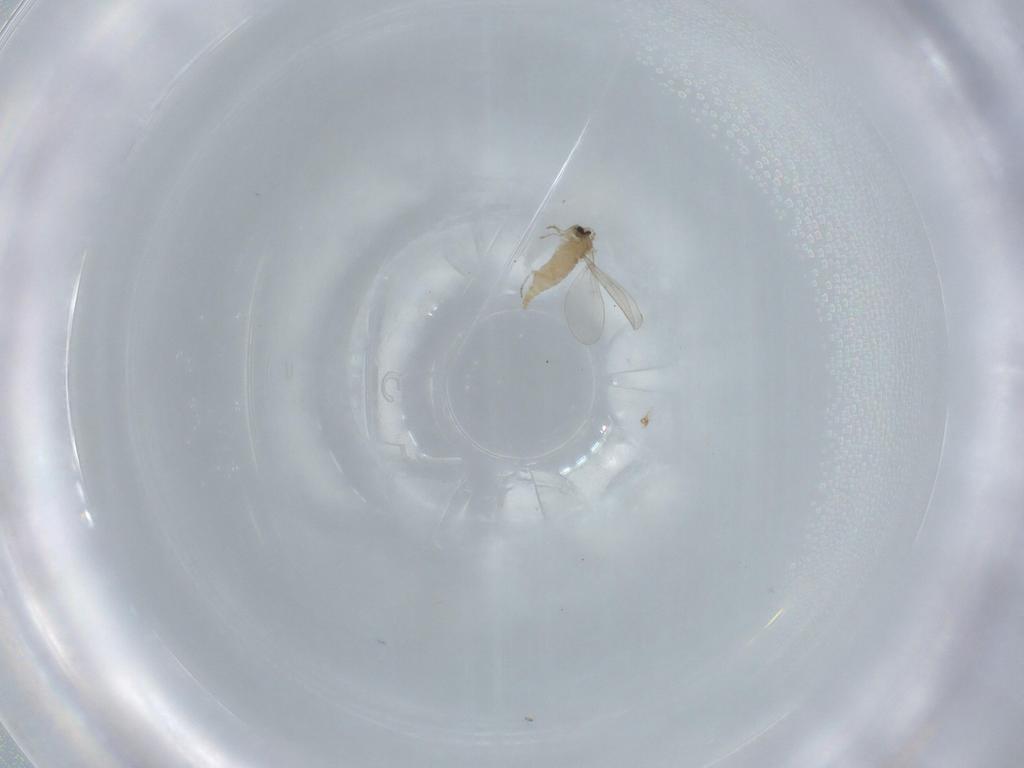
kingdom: Animalia
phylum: Arthropoda
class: Insecta
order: Diptera
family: Cecidomyiidae
